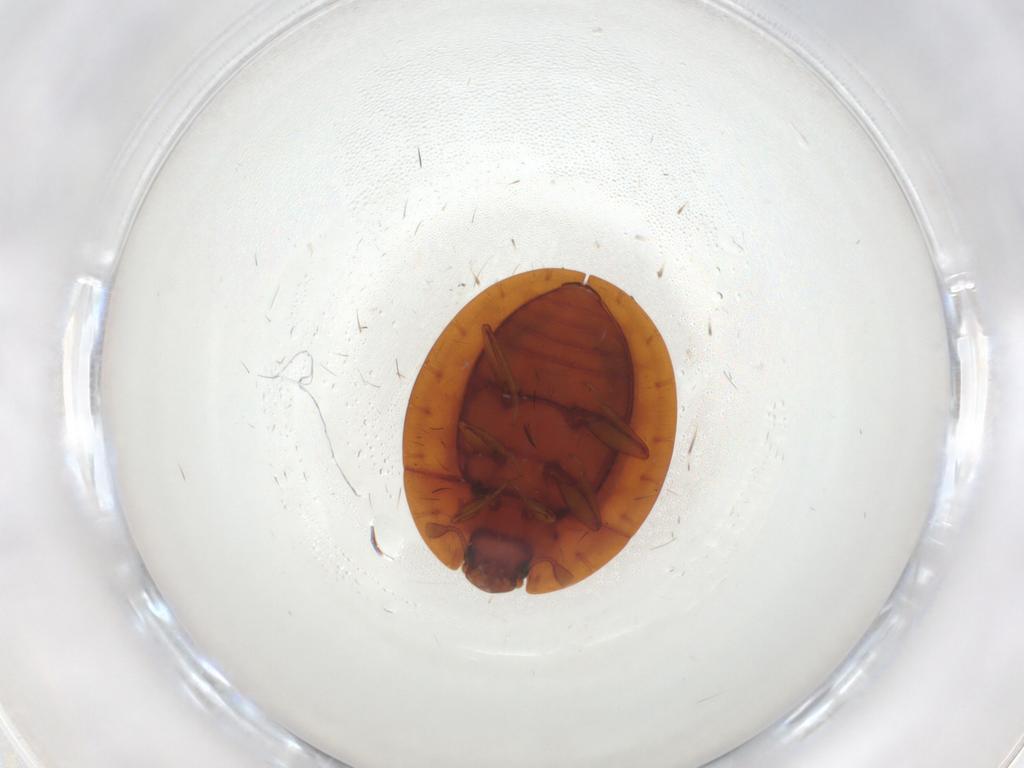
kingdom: Animalia
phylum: Arthropoda
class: Insecta
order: Coleoptera
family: Discolomatidae
